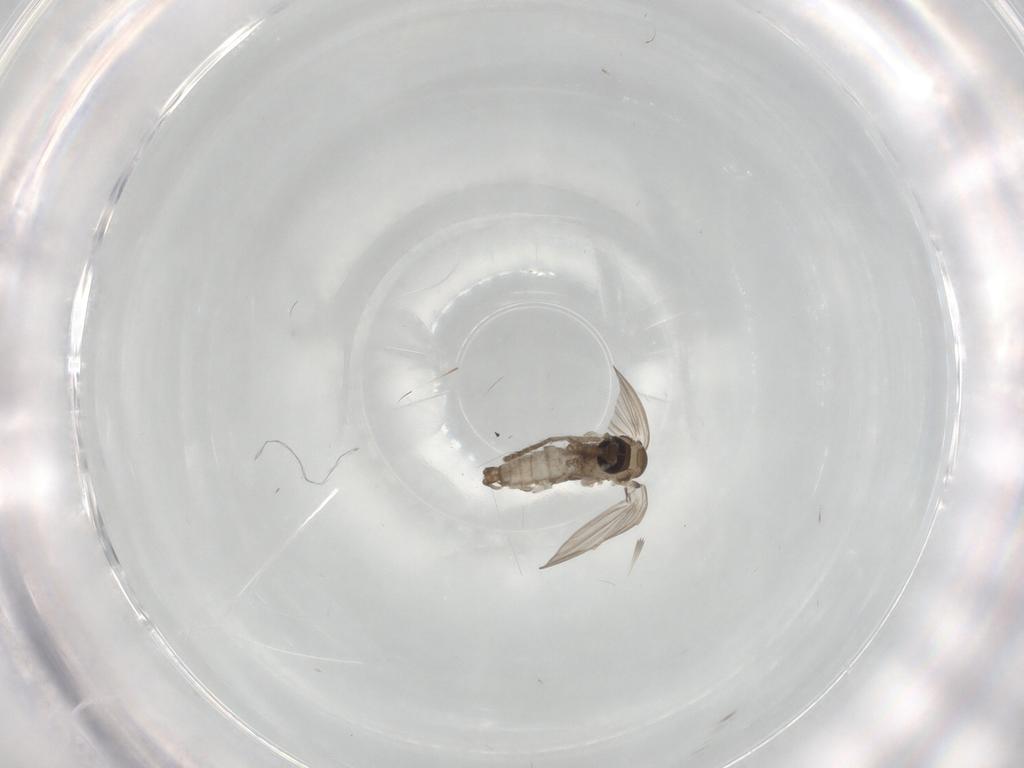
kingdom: Animalia
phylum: Arthropoda
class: Insecta
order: Diptera
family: Psychodidae
